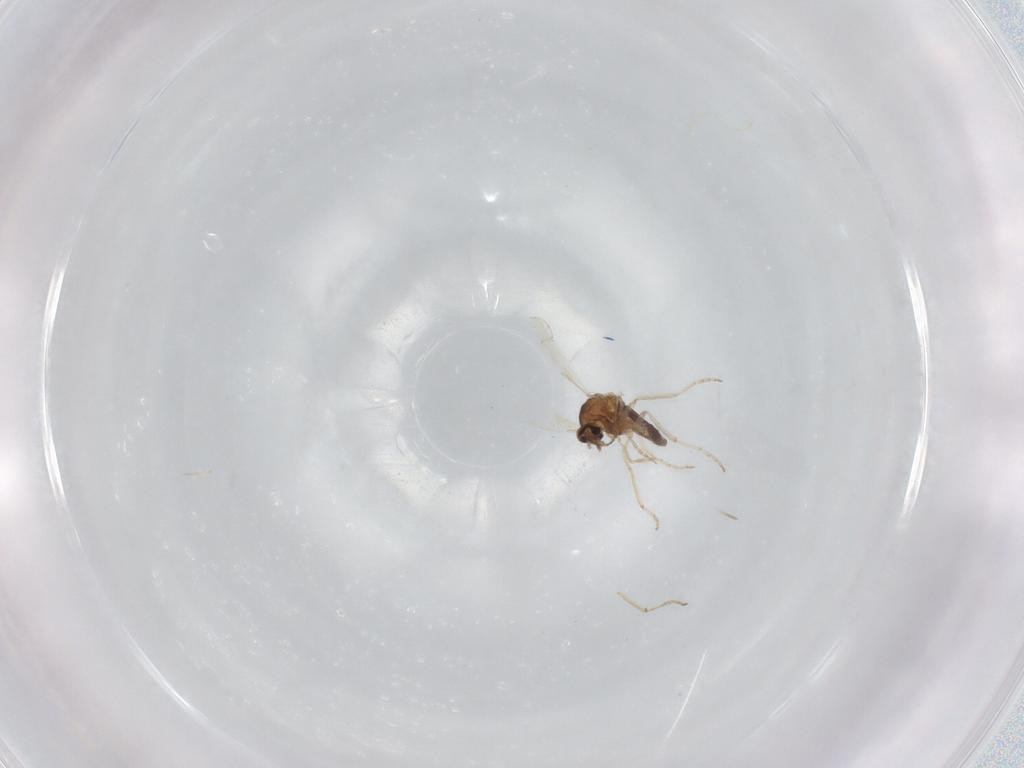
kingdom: Animalia
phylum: Arthropoda
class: Insecta
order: Diptera
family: Ceratopogonidae
